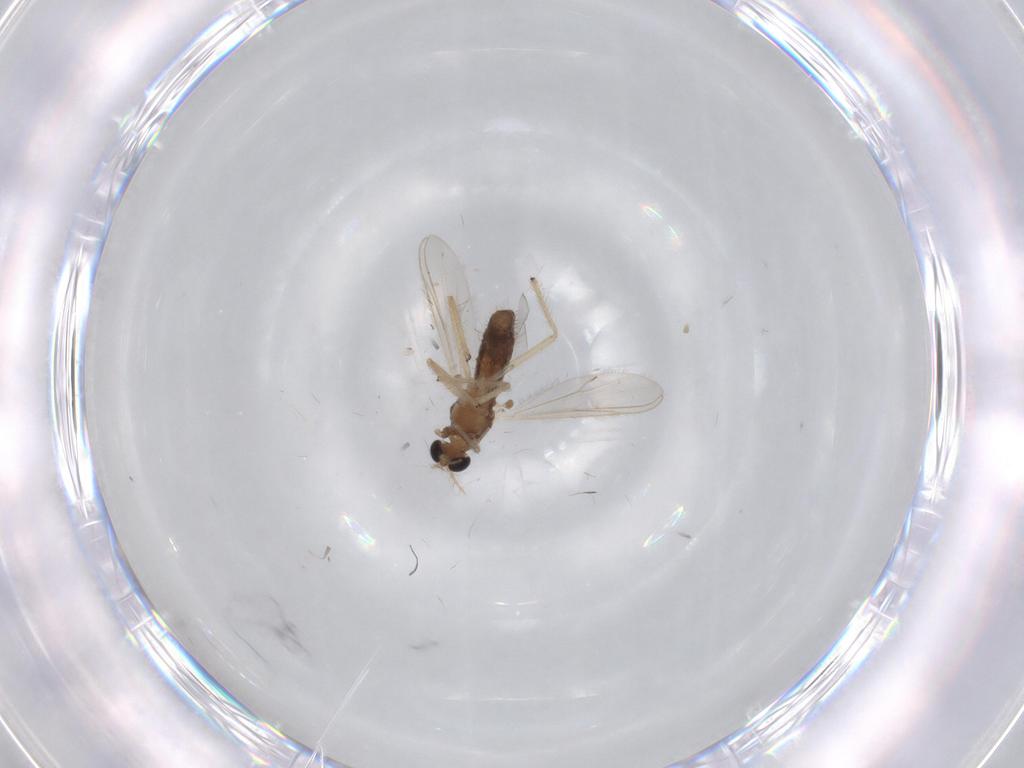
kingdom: Animalia
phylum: Arthropoda
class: Insecta
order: Diptera
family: Chironomidae
